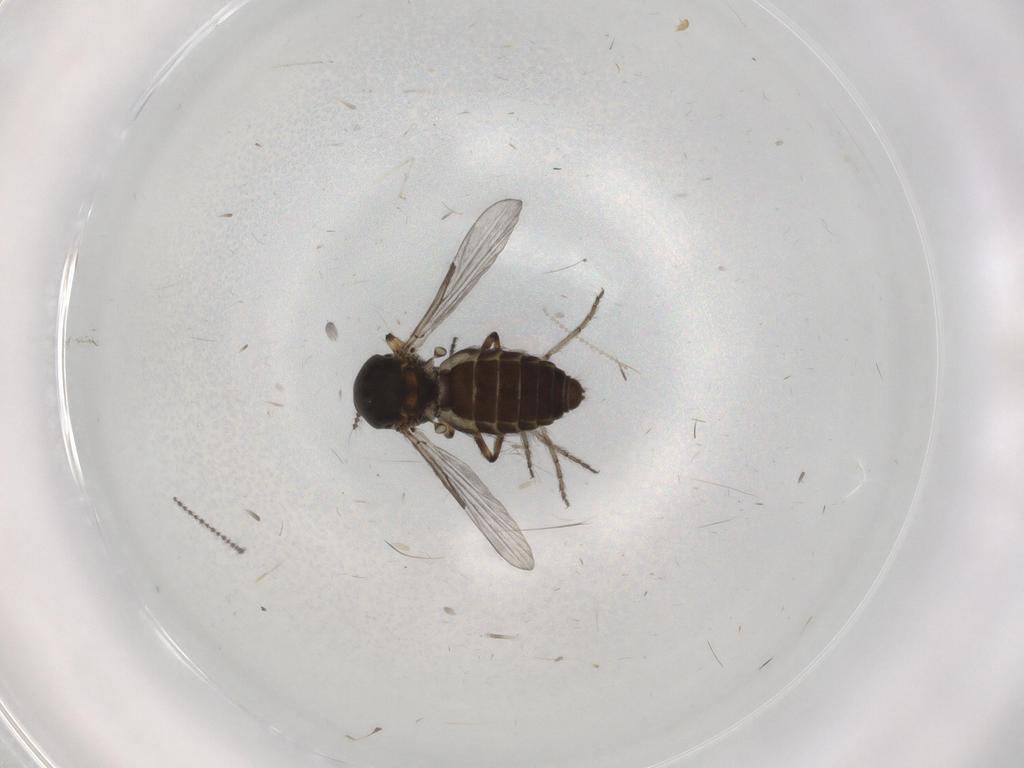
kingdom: Animalia
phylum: Arthropoda
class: Insecta
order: Diptera
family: Ceratopogonidae
